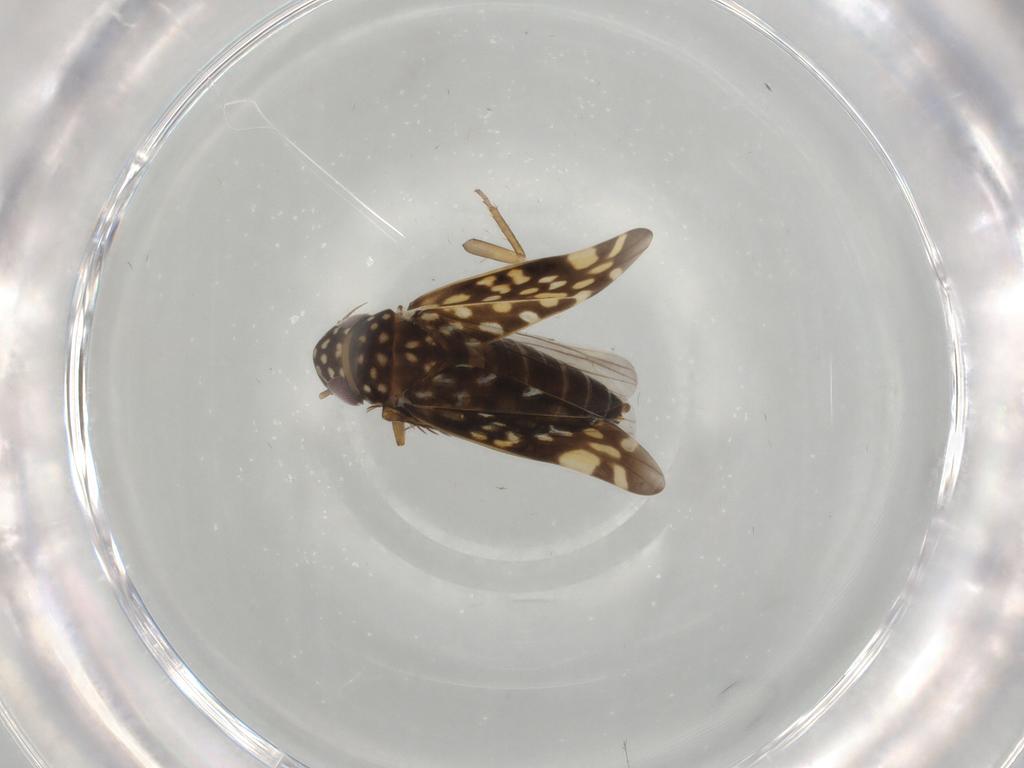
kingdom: Animalia
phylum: Arthropoda
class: Insecta
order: Hemiptera
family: Cicadellidae
